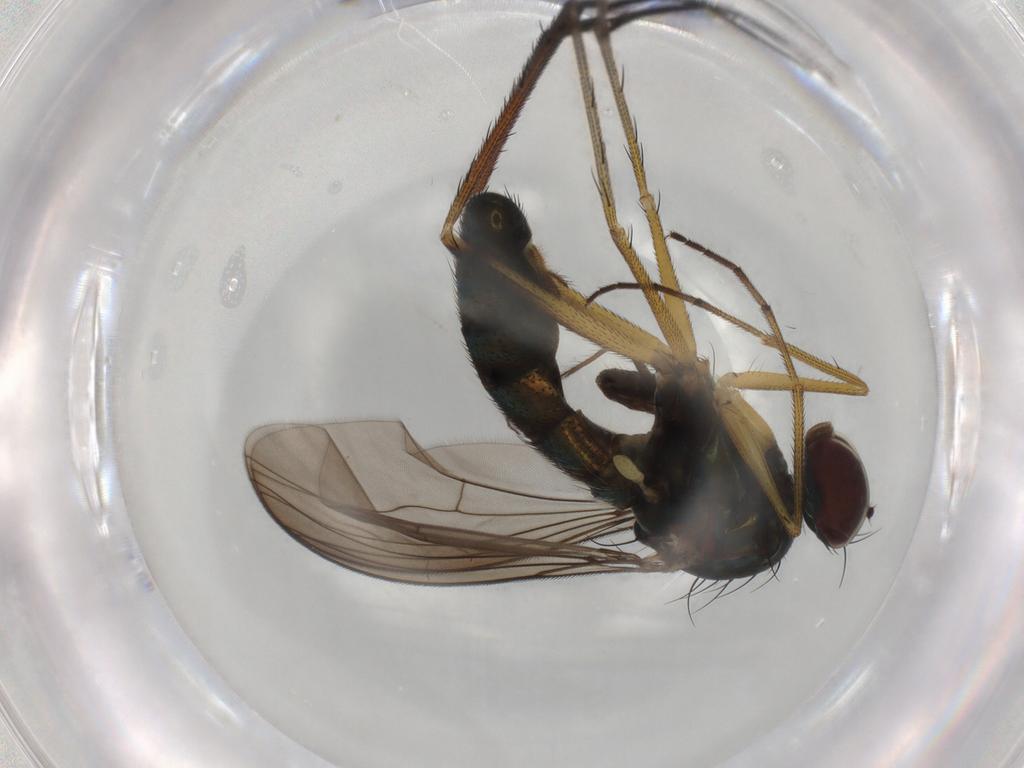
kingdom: Animalia
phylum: Arthropoda
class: Insecta
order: Diptera
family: Chironomidae
